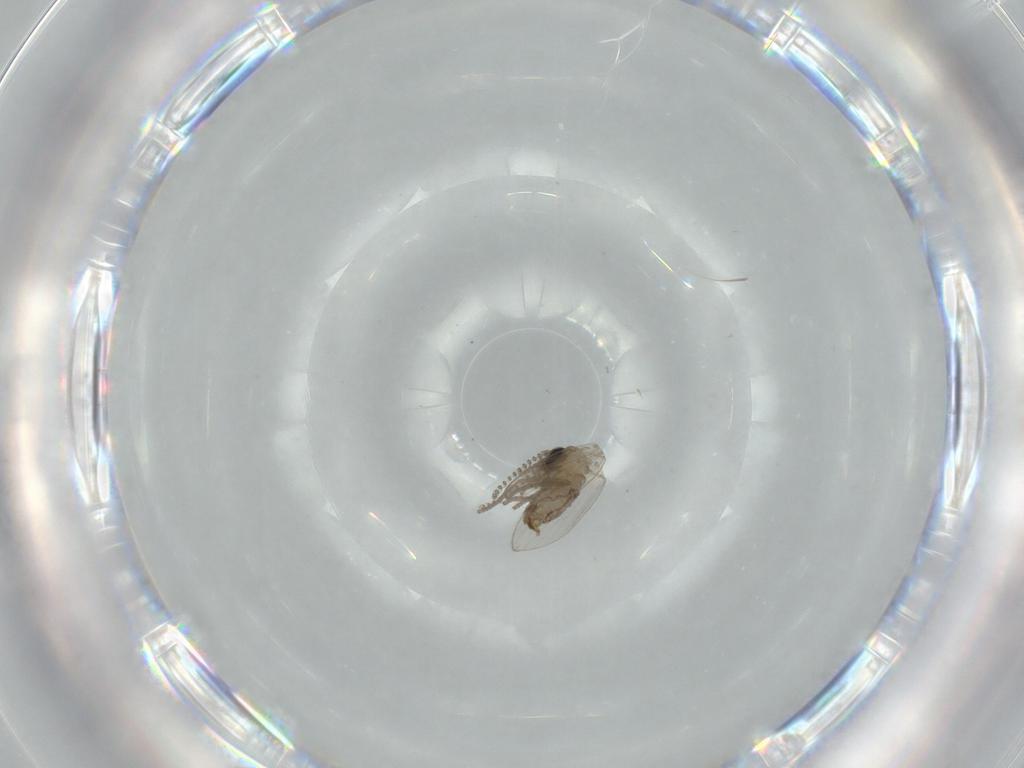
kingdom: Animalia
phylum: Arthropoda
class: Insecta
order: Diptera
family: Psychodidae
